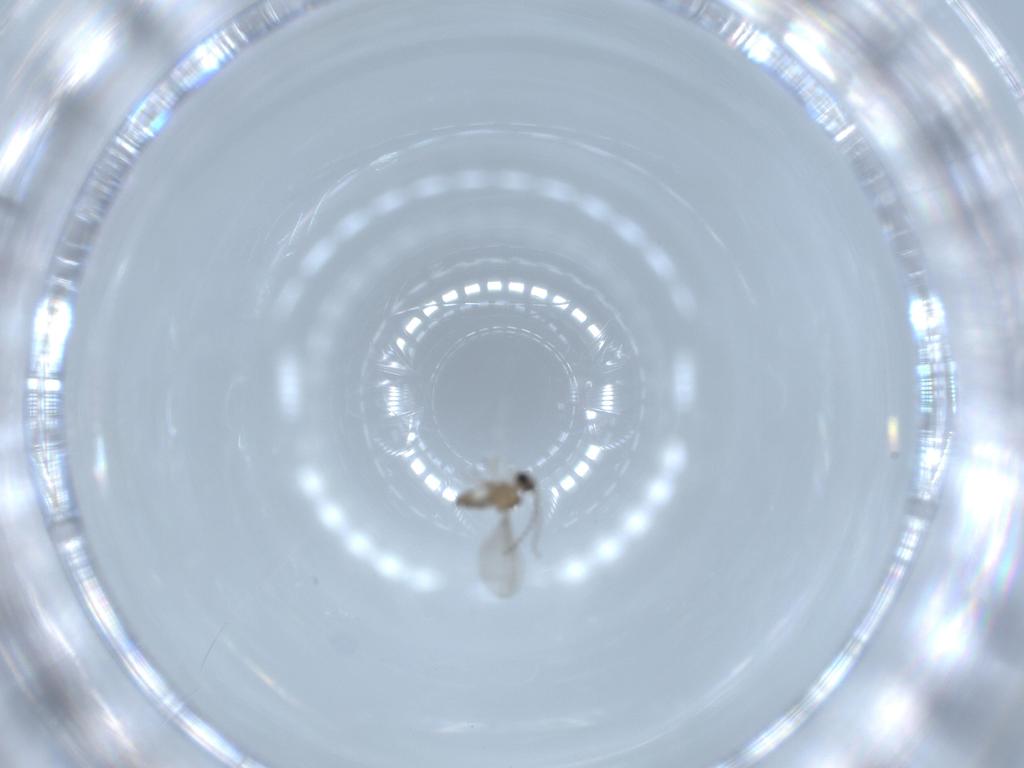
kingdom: Animalia
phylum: Arthropoda
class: Insecta
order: Diptera
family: Cecidomyiidae
